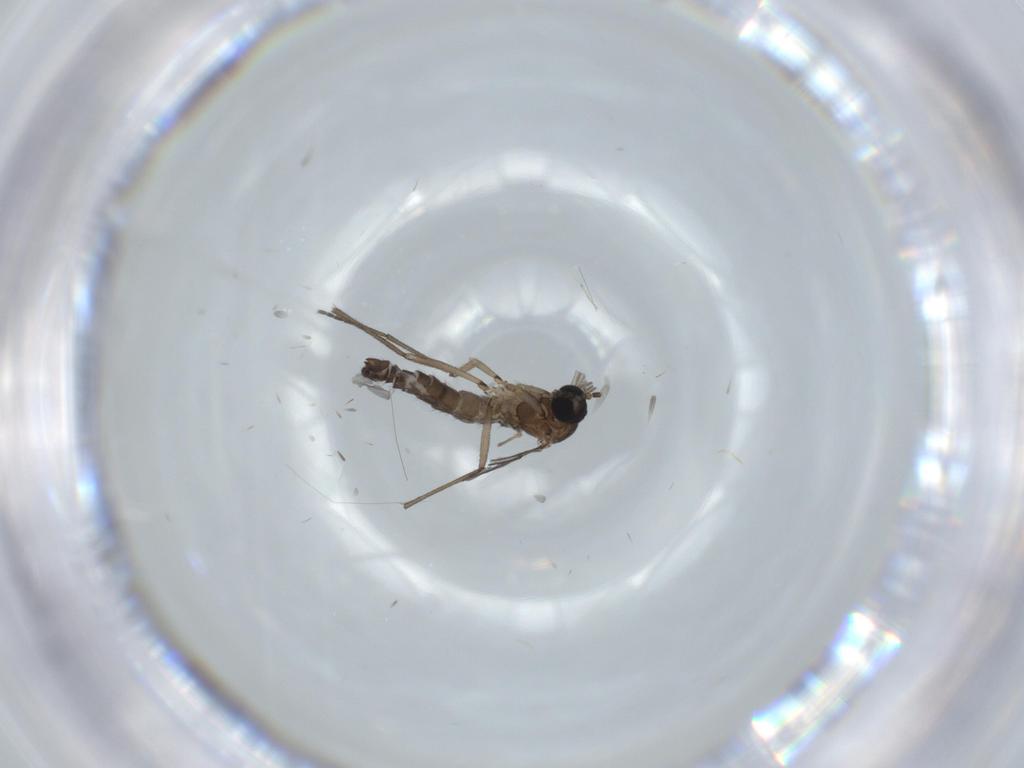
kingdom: Animalia
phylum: Arthropoda
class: Insecta
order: Diptera
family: Sciaridae
